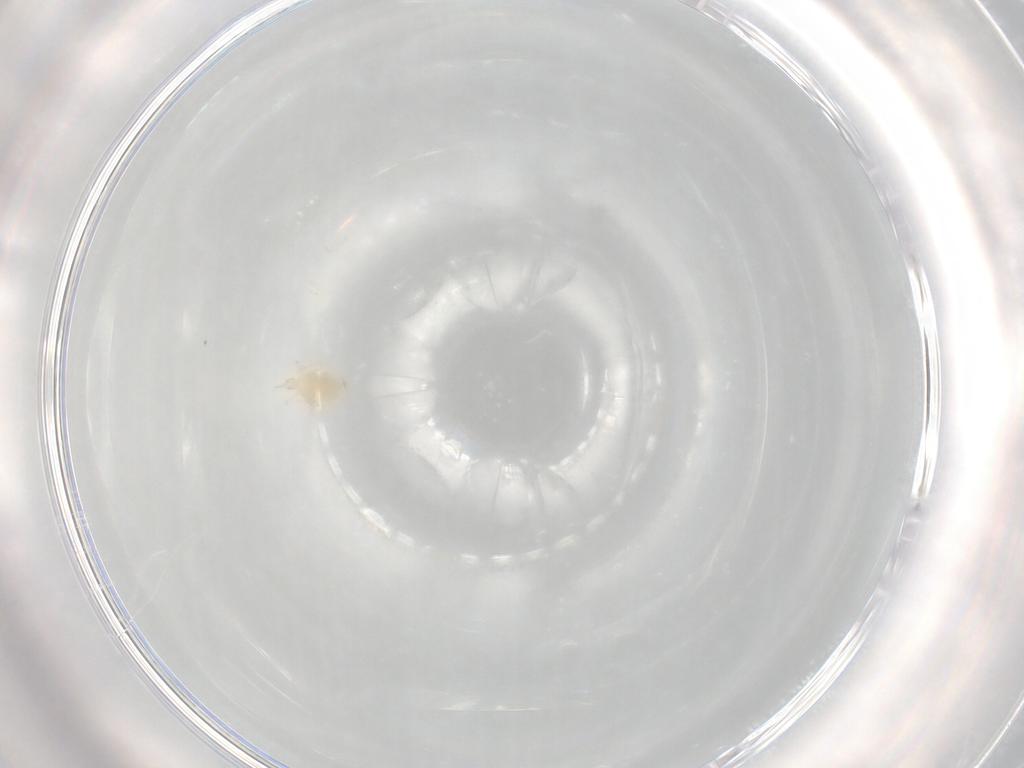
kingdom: Animalia
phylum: Arthropoda
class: Arachnida
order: Trombidiformes
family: Cunaxidae
